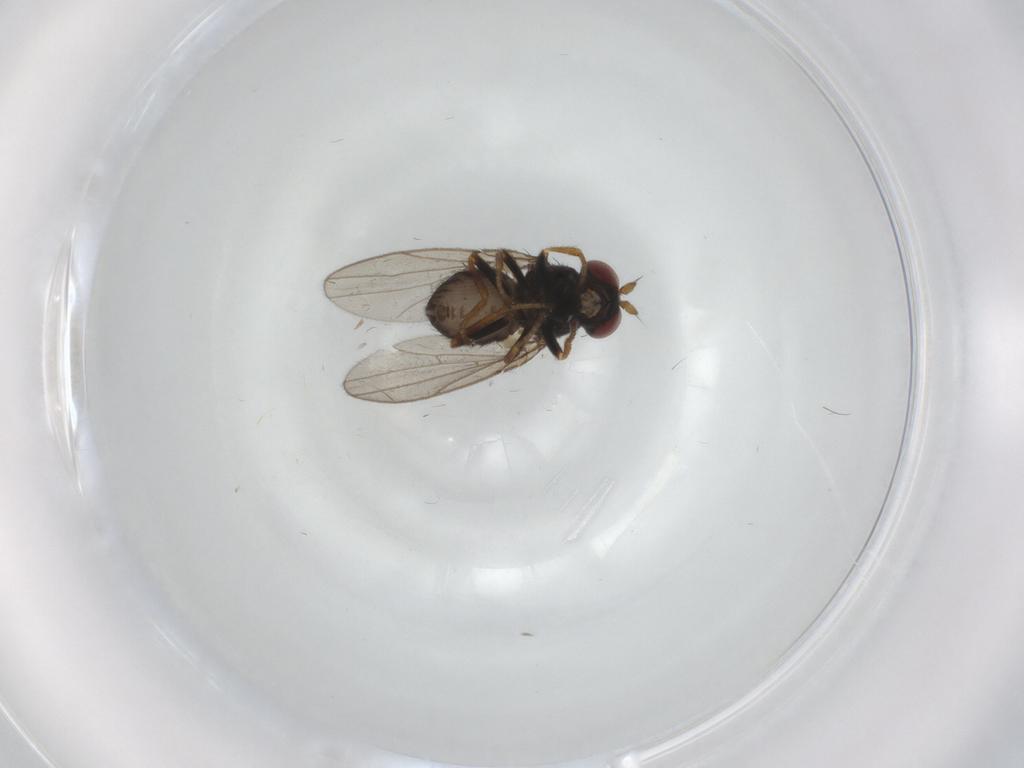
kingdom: Animalia
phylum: Arthropoda
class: Insecta
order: Diptera
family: Ephydridae
